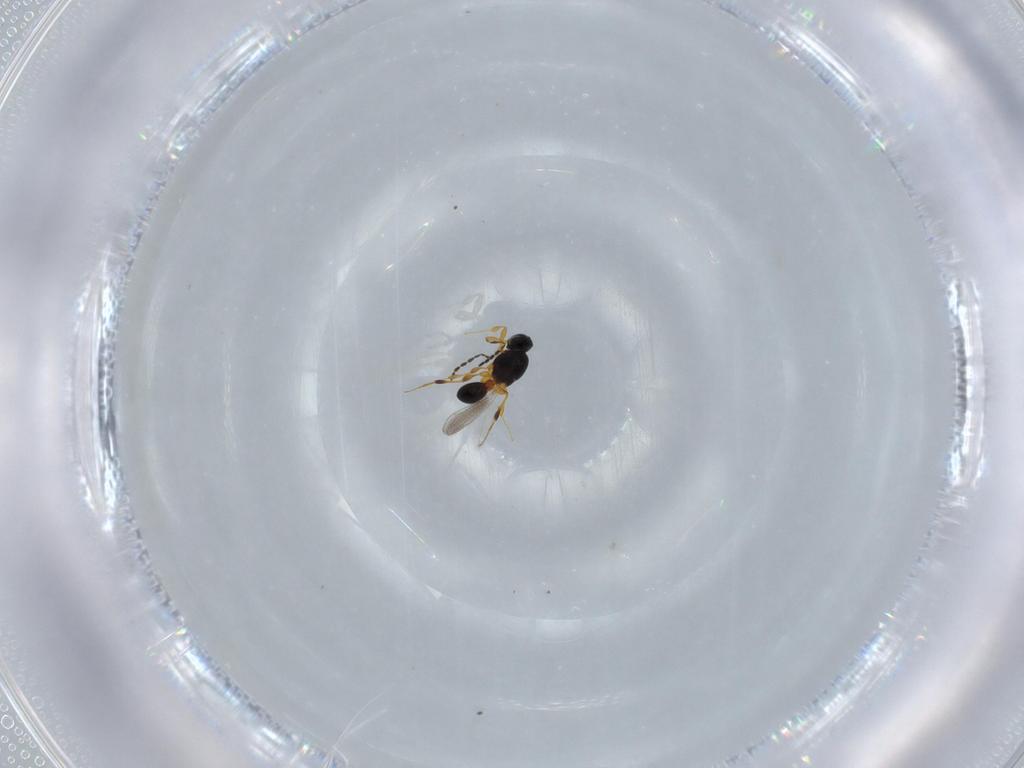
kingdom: Animalia
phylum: Arthropoda
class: Insecta
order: Hymenoptera
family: Platygastridae
